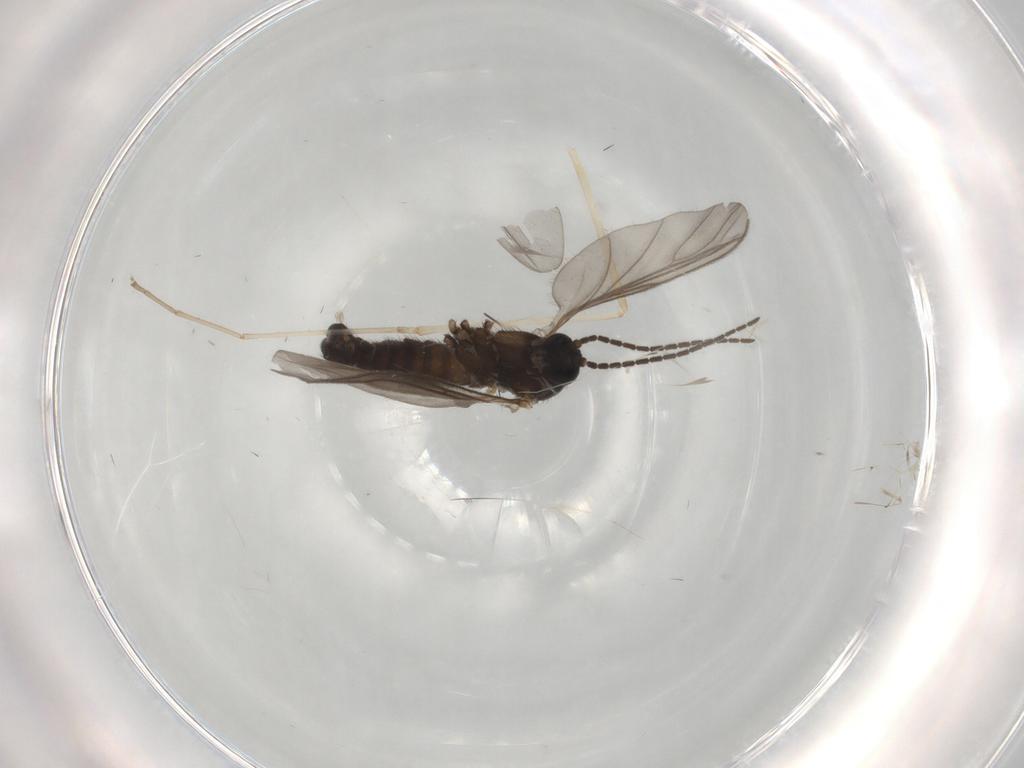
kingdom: Animalia
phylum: Arthropoda
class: Insecta
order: Diptera
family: Sciaridae
